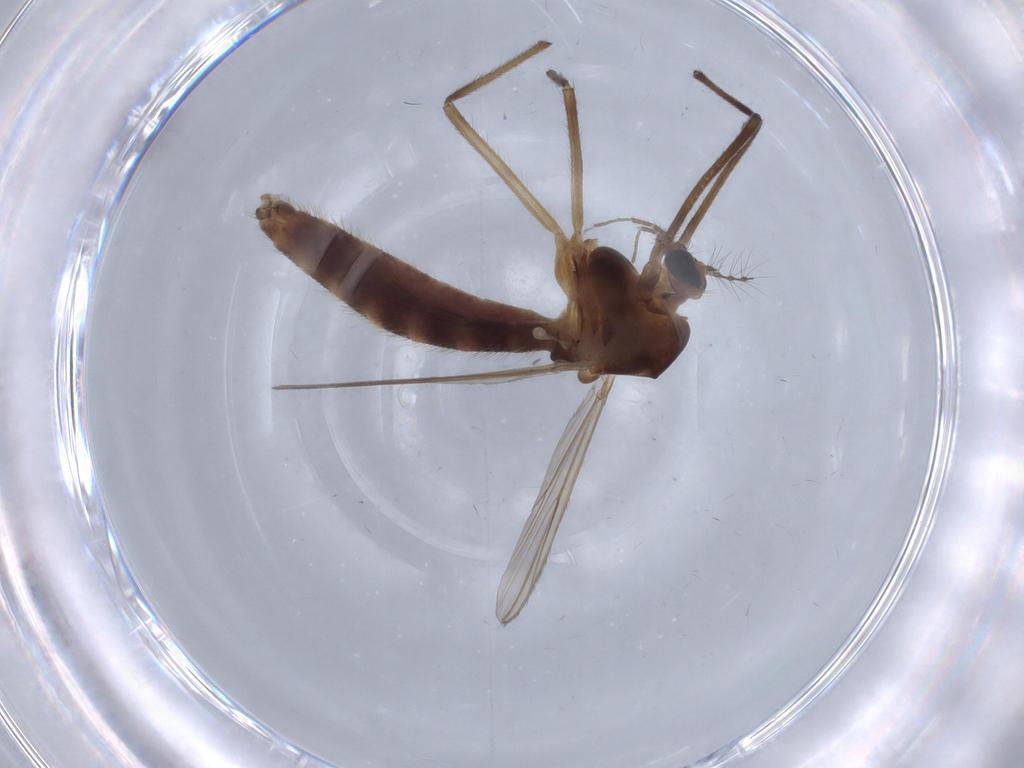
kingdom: Animalia
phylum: Arthropoda
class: Insecta
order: Diptera
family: Chironomidae
